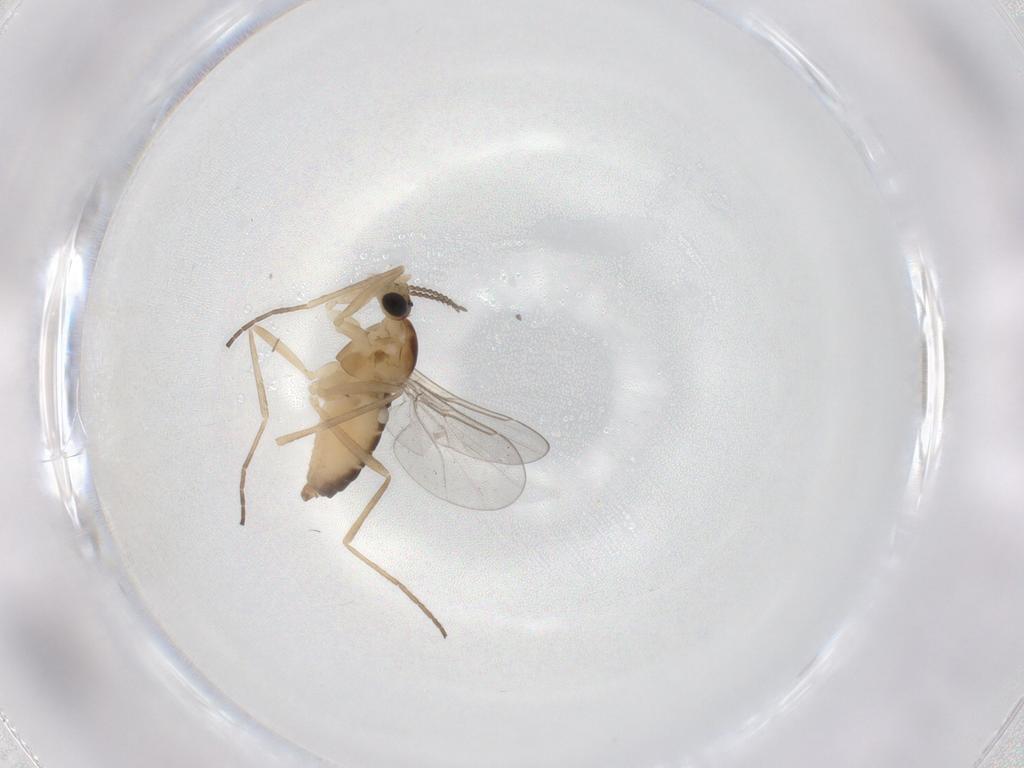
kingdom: Animalia
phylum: Arthropoda
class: Insecta
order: Diptera
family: Cecidomyiidae
